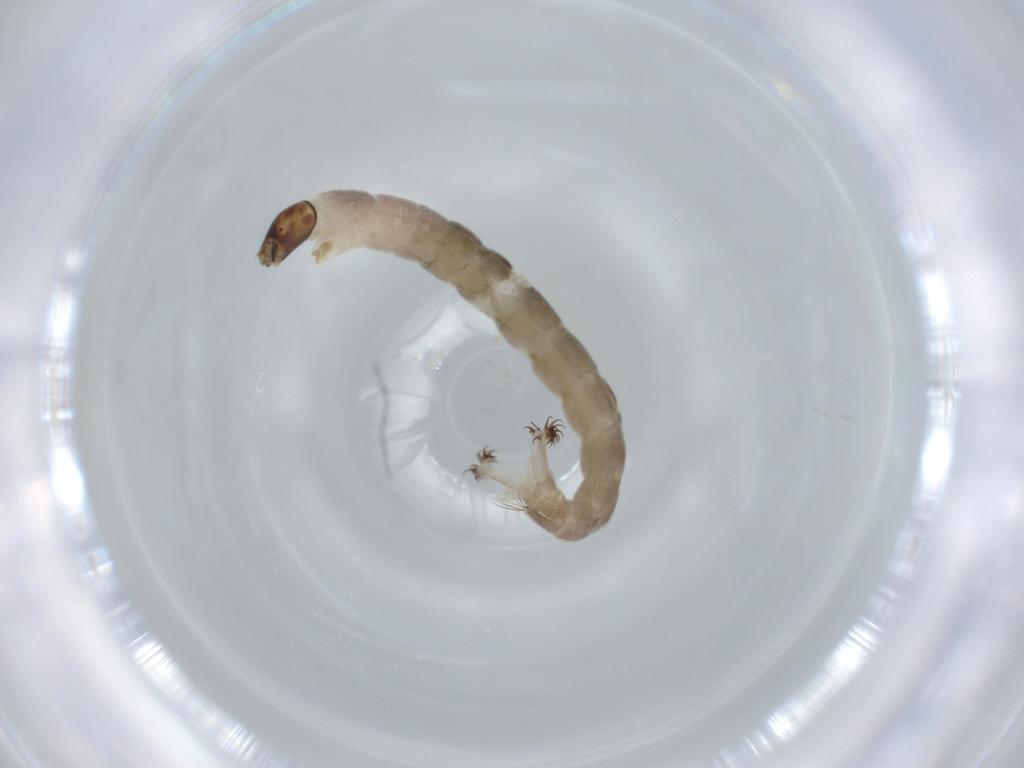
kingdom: Animalia
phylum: Arthropoda
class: Insecta
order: Diptera
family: Chironomidae
